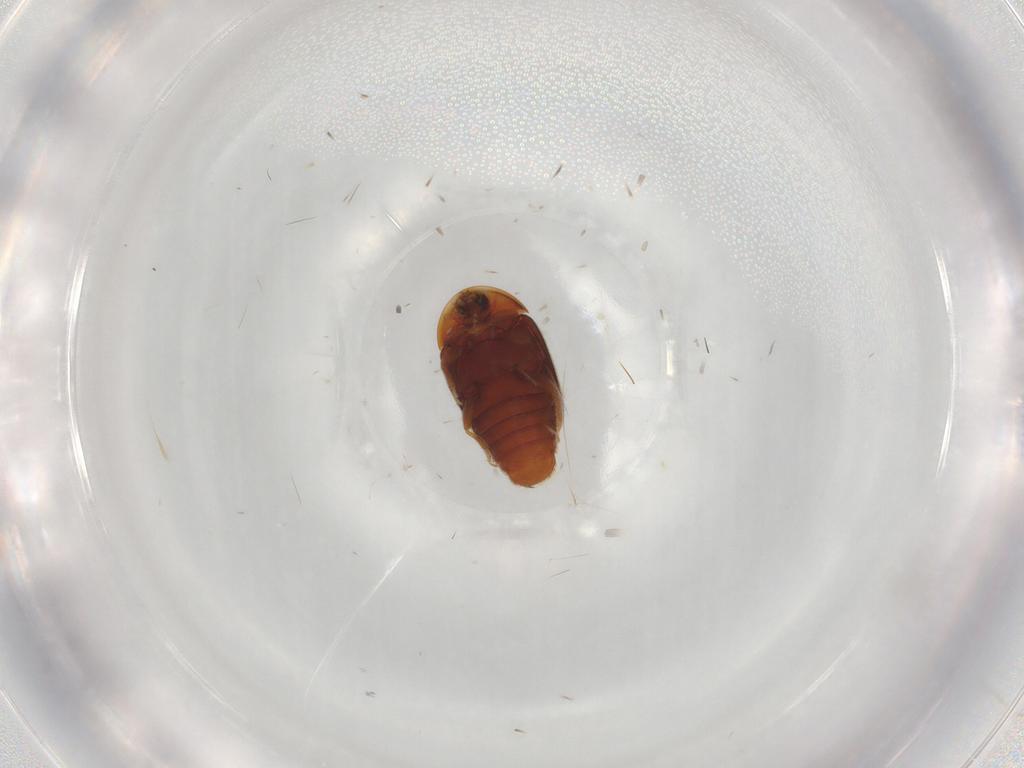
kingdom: Animalia
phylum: Arthropoda
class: Insecta
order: Coleoptera
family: Corylophidae
